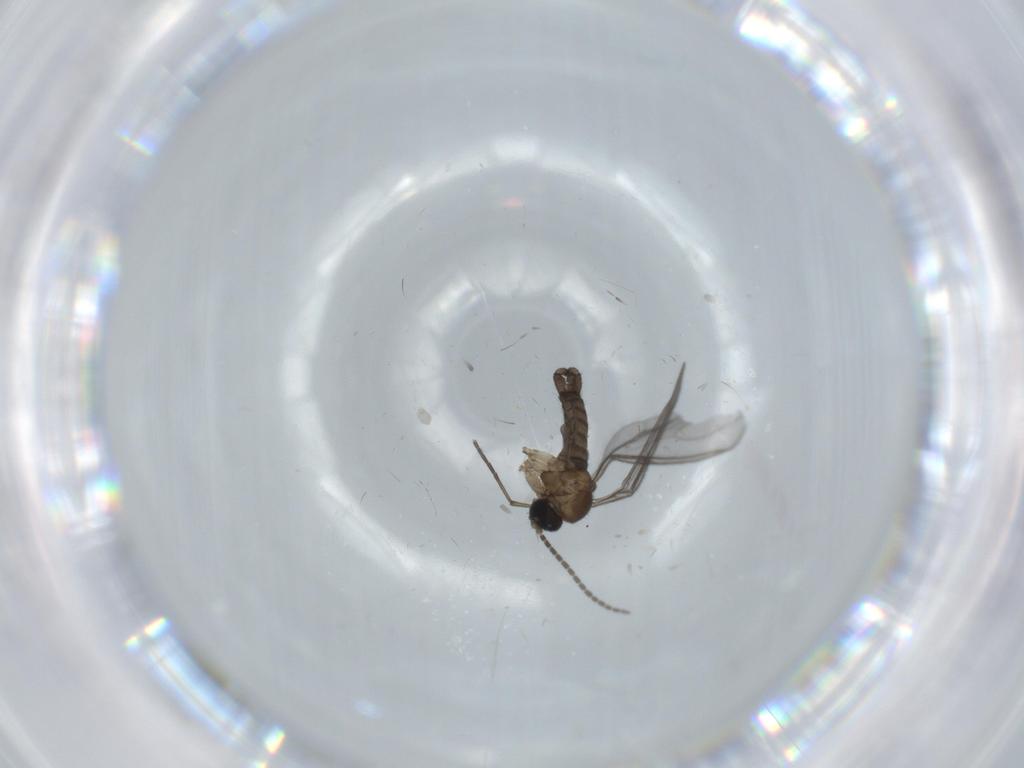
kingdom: Animalia
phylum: Arthropoda
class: Insecta
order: Diptera
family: Sciaridae
